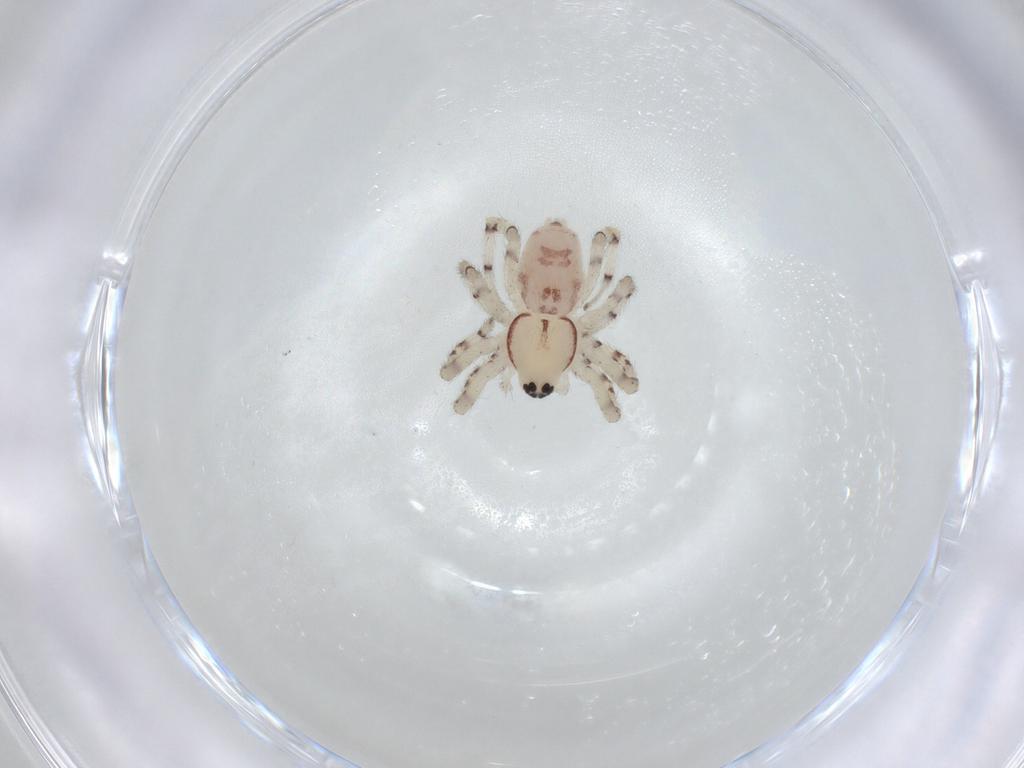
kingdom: Animalia
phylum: Arthropoda
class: Arachnida
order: Araneae
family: Theridiidae
